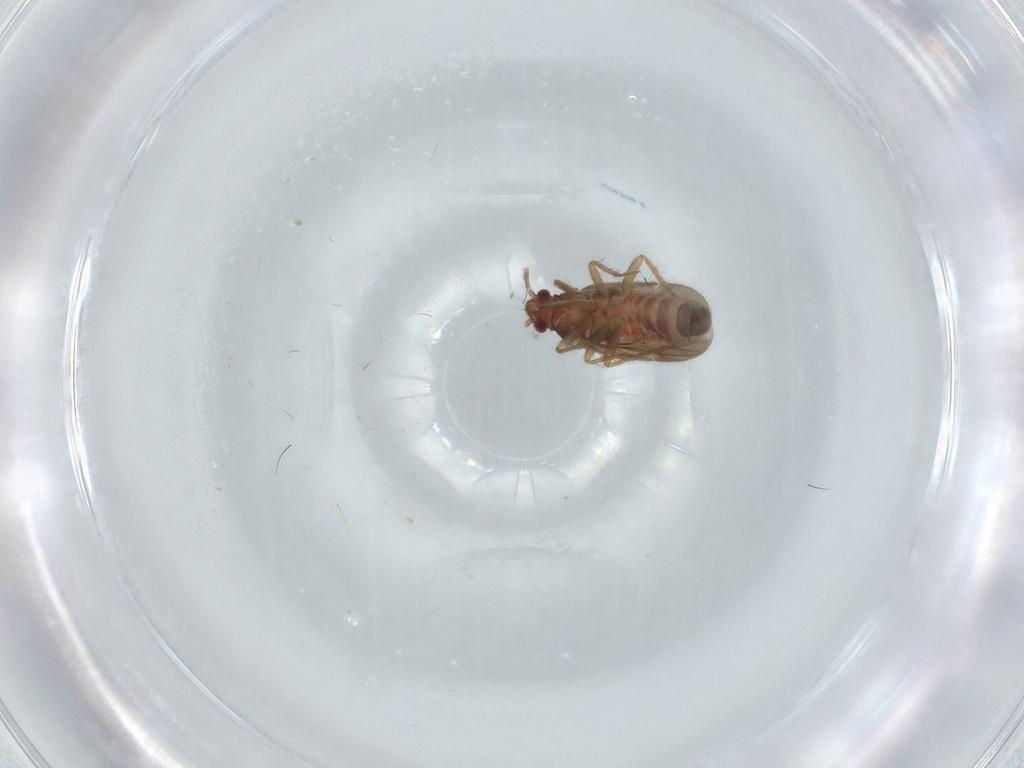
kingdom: Animalia
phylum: Arthropoda
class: Insecta
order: Hemiptera
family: Ceratocombidae
